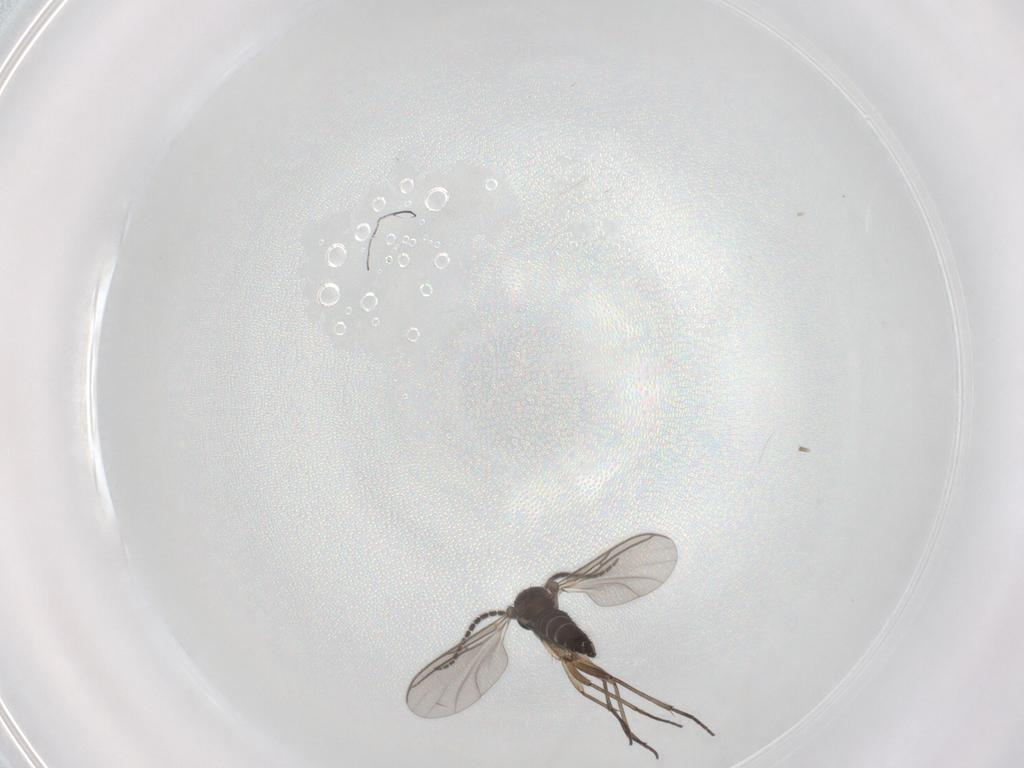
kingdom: Animalia
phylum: Arthropoda
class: Insecta
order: Diptera
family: Sciaridae
